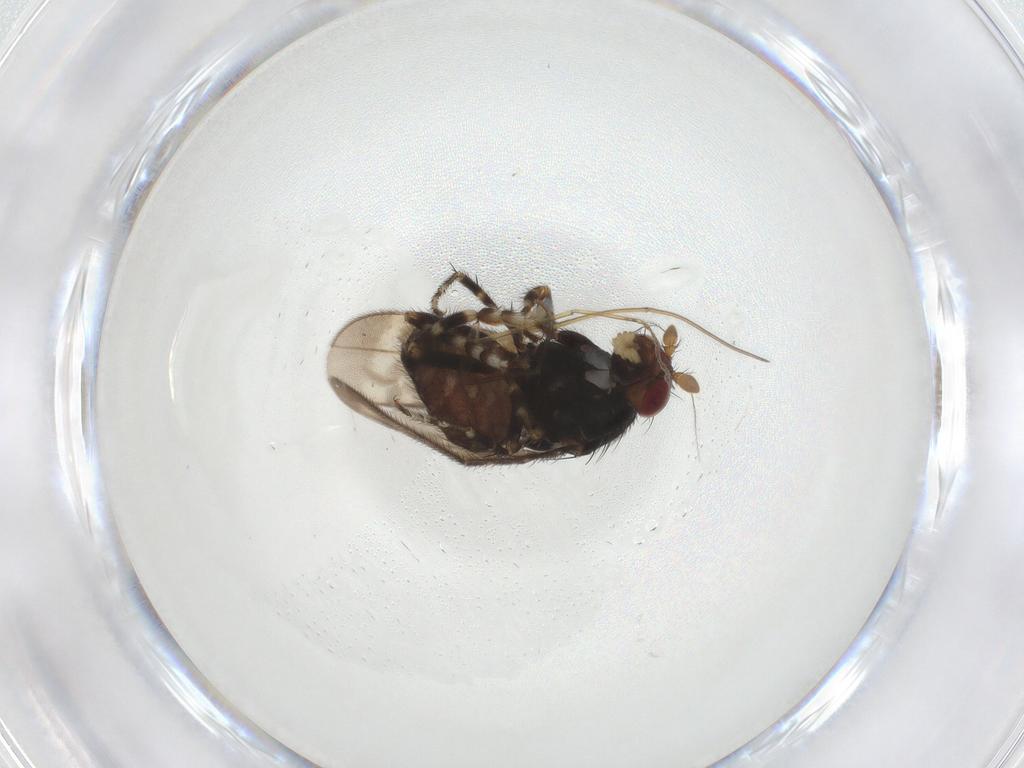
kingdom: Animalia
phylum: Arthropoda
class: Insecta
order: Diptera
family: Sphaeroceridae
